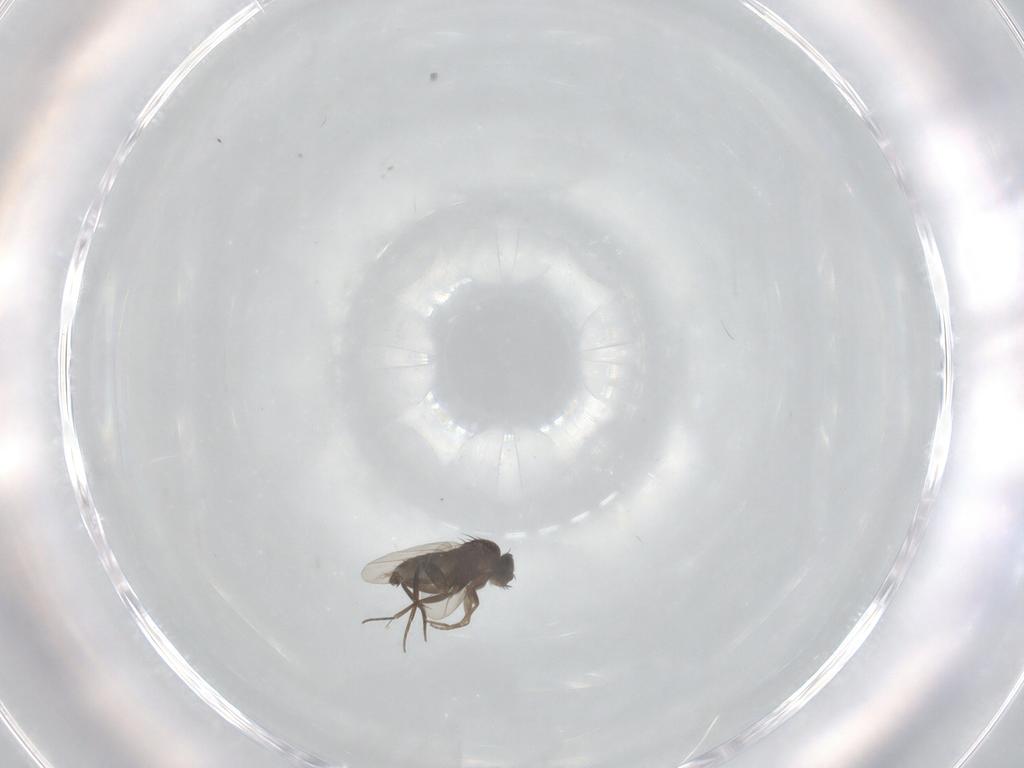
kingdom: Animalia
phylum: Arthropoda
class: Insecta
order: Diptera
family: Phoridae
